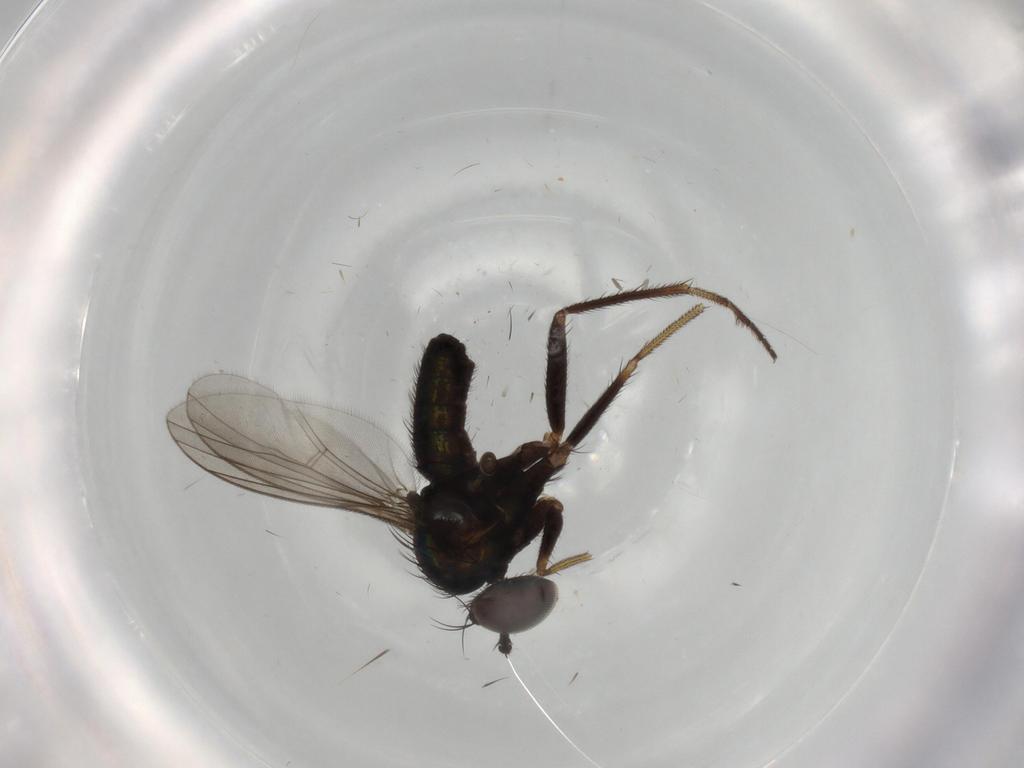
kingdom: Animalia
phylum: Arthropoda
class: Insecta
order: Diptera
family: Dolichopodidae
